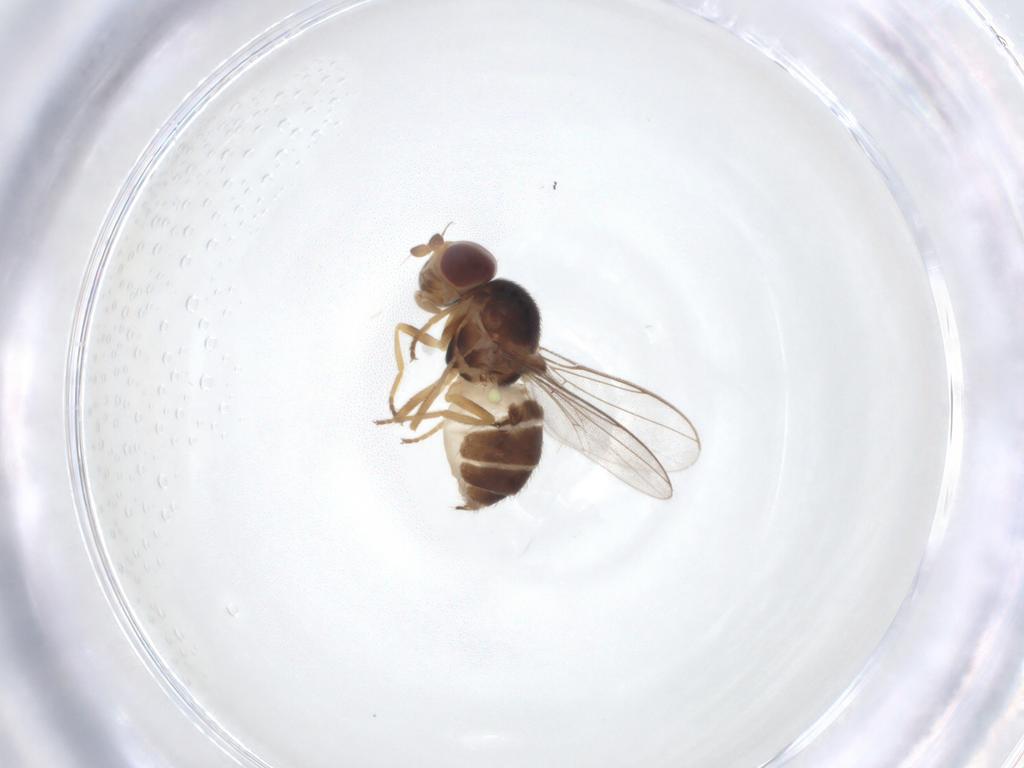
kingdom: Animalia
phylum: Arthropoda
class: Insecta
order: Diptera
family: Chloropidae
